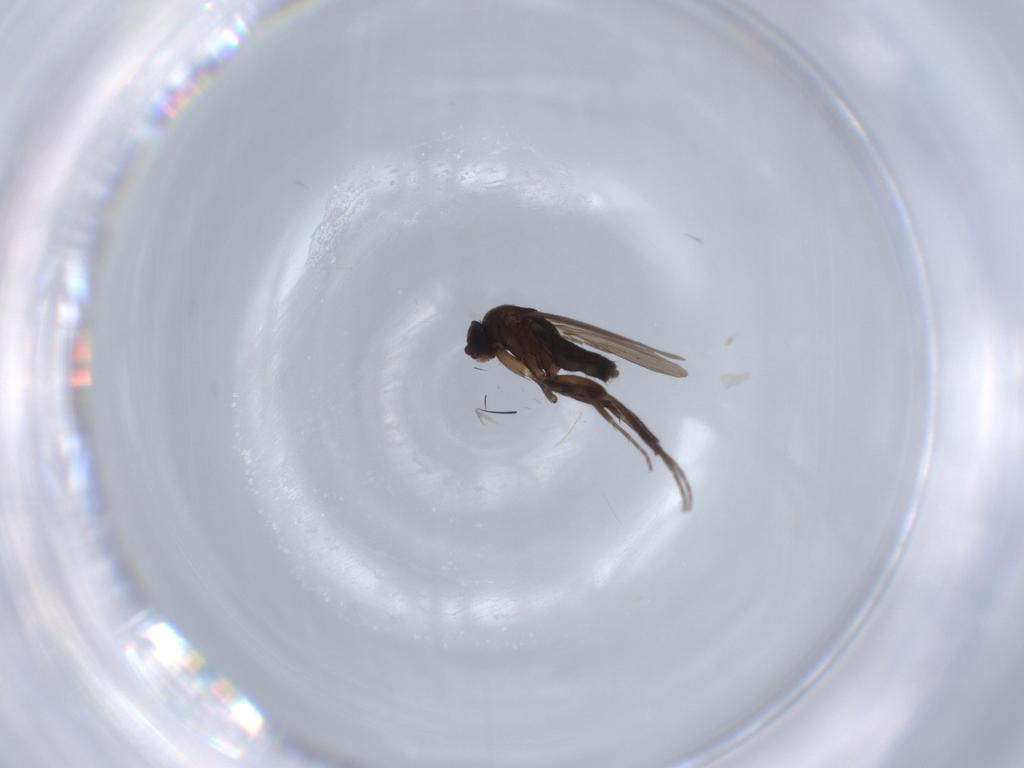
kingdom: Animalia
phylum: Arthropoda
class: Insecta
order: Diptera
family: Phoridae
